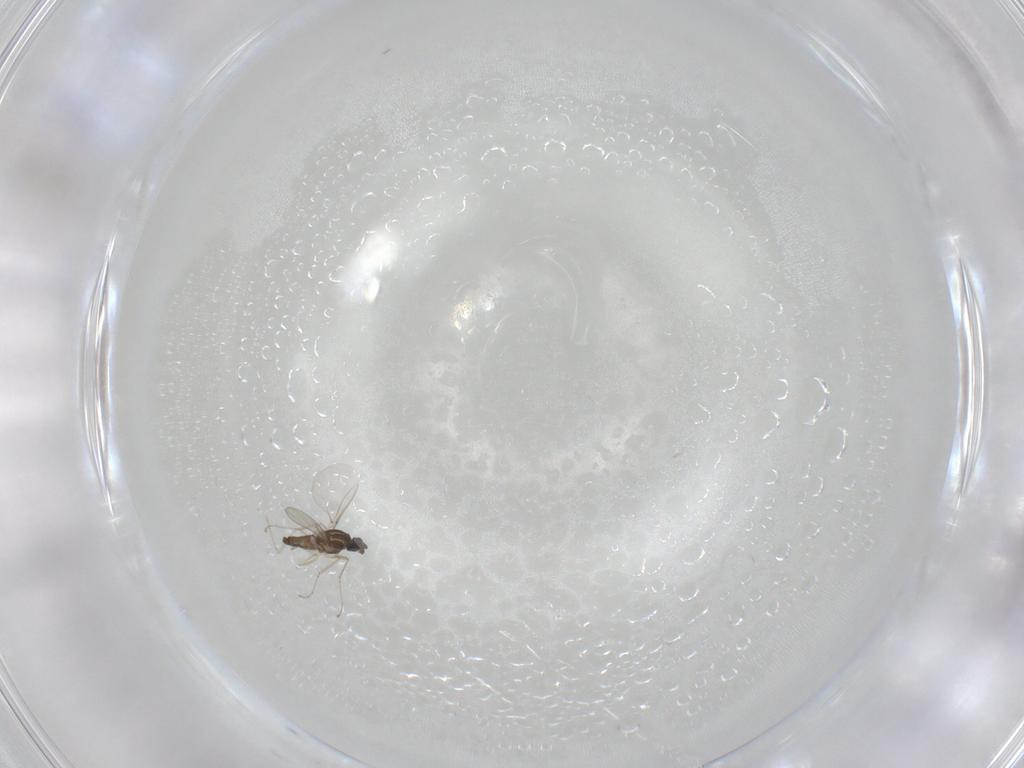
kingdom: Animalia
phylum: Arthropoda
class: Insecta
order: Diptera
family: Cecidomyiidae
